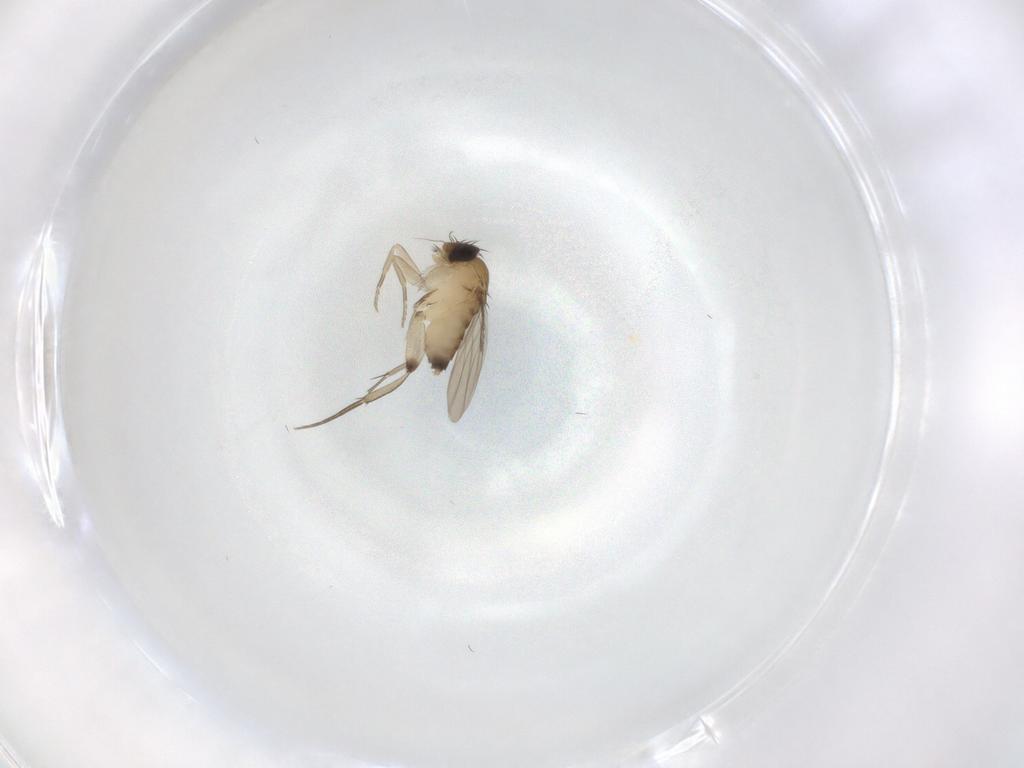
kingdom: Animalia
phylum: Arthropoda
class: Insecta
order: Diptera
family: Phoridae
